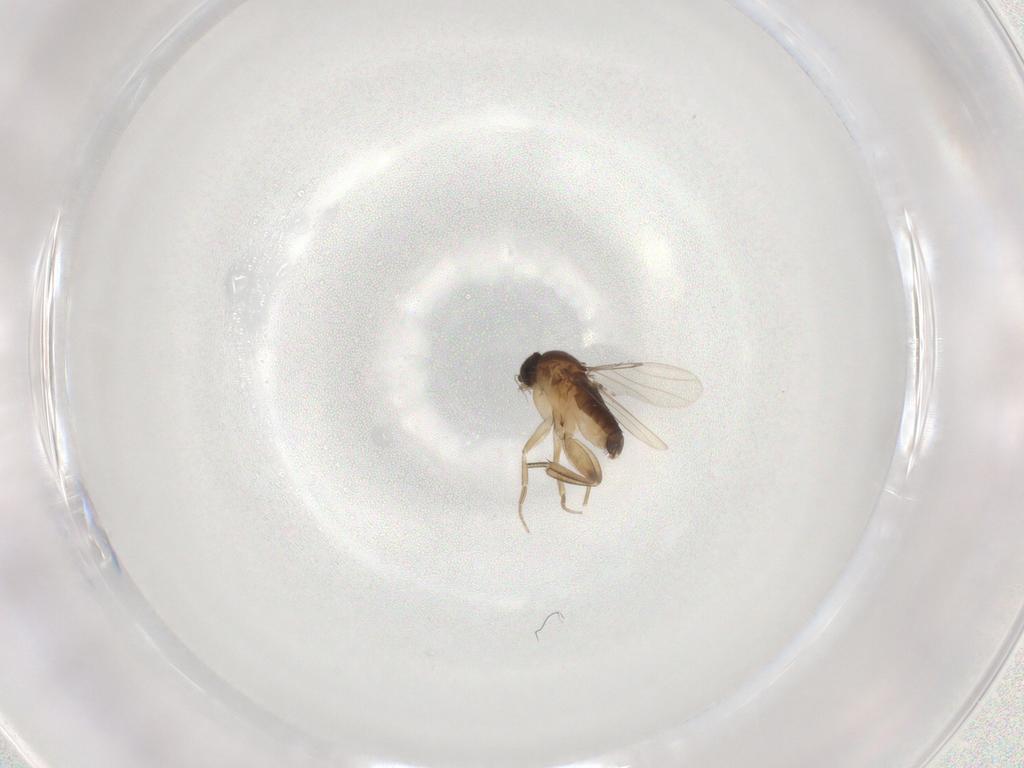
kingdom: Animalia
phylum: Arthropoda
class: Insecta
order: Diptera
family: Phoridae
